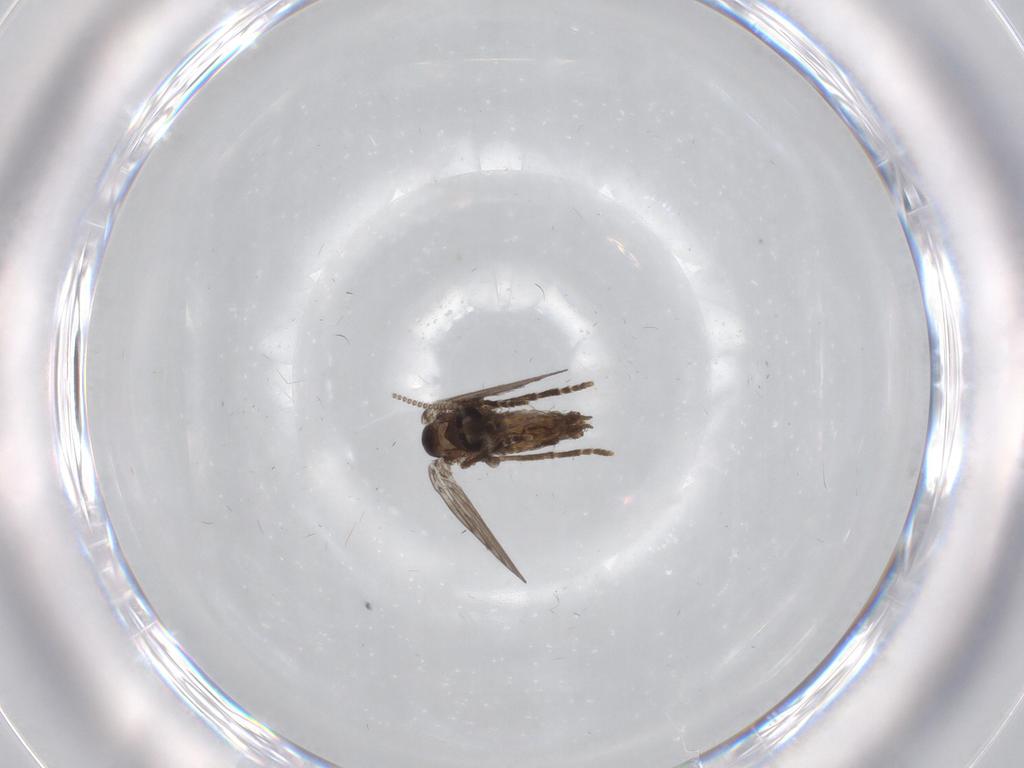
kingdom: Animalia
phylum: Arthropoda
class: Insecta
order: Diptera
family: Psychodidae
